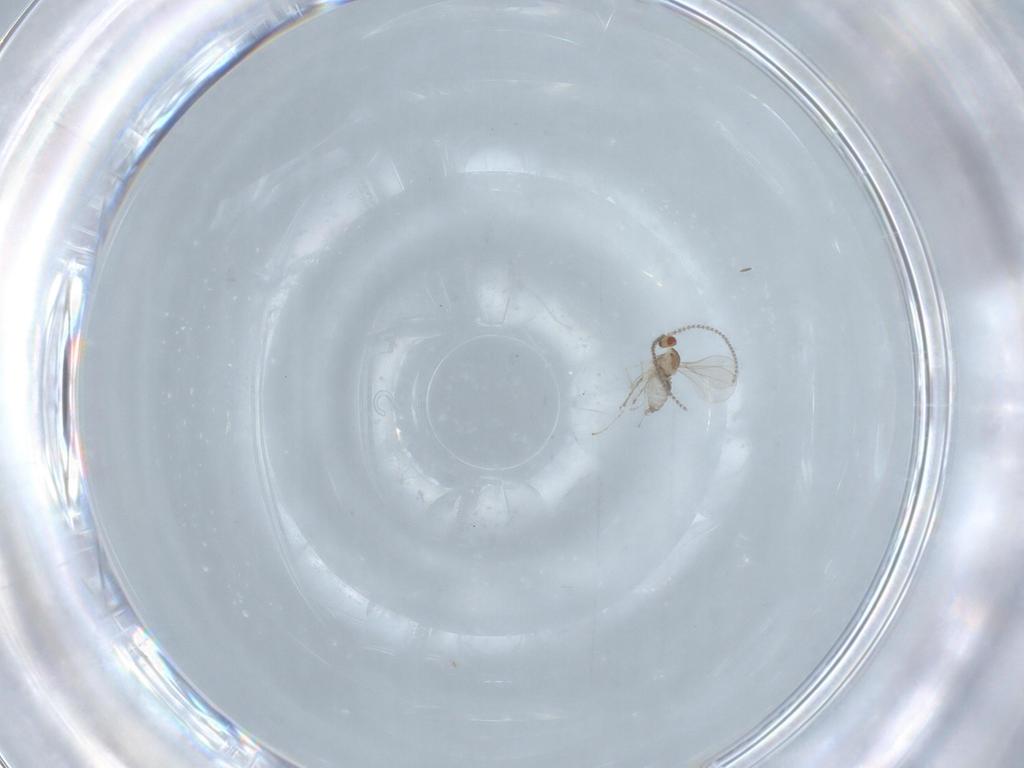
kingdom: Animalia
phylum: Arthropoda
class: Insecta
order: Diptera
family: Cecidomyiidae
